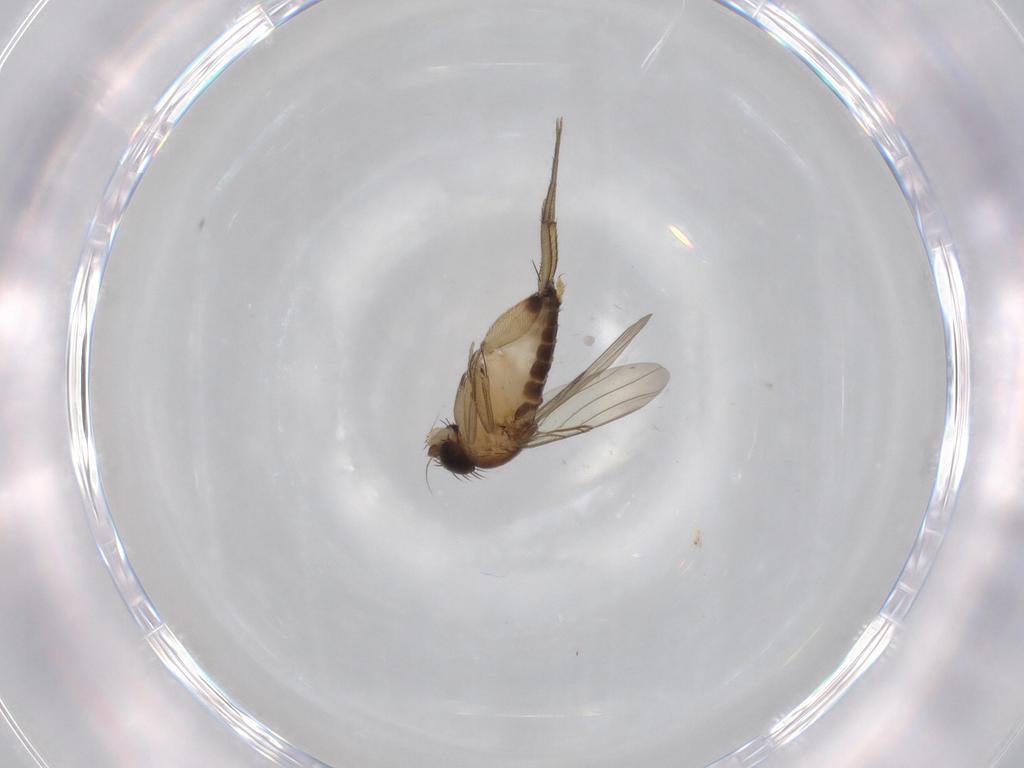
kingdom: Animalia
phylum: Arthropoda
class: Insecta
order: Diptera
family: Phoridae
